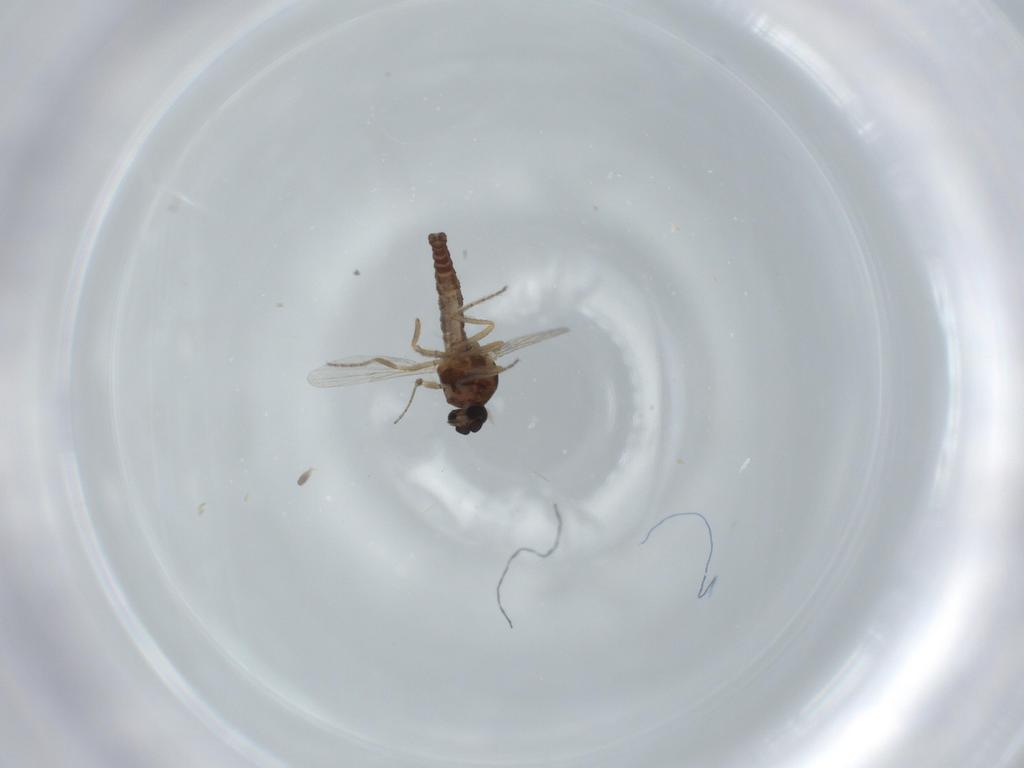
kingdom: Animalia
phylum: Arthropoda
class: Insecta
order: Diptera
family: Ceratopogonidae
